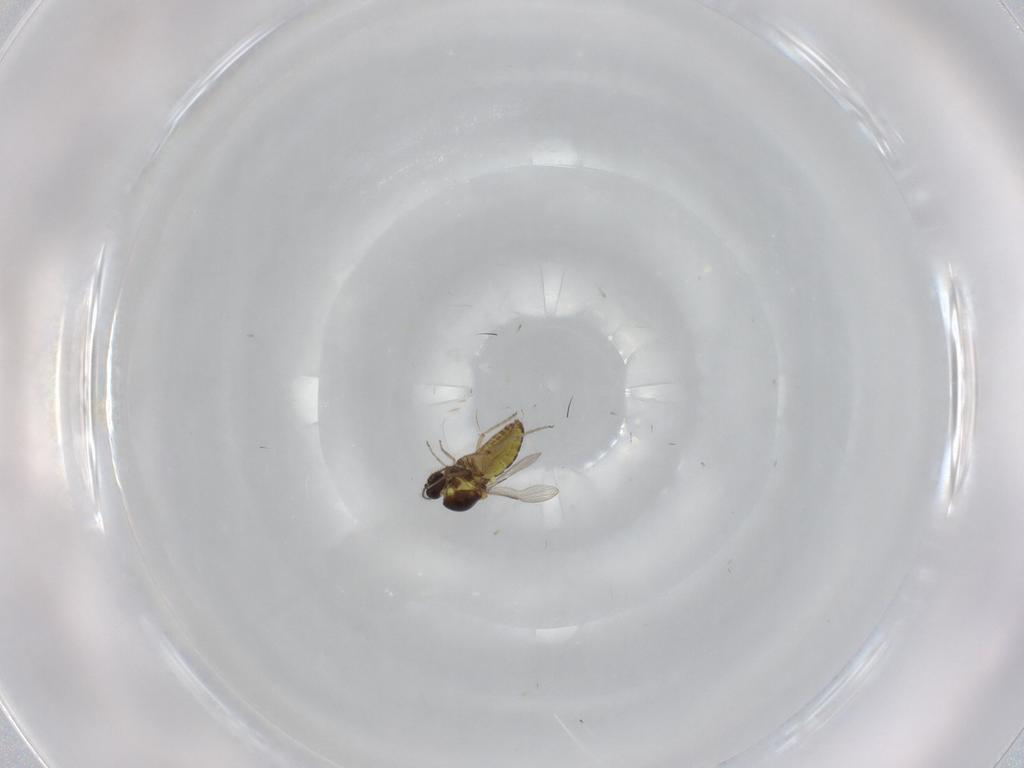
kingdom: Animalia
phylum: Arthropoda
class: Insecta
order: Diptera
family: Ceratopogonidae
